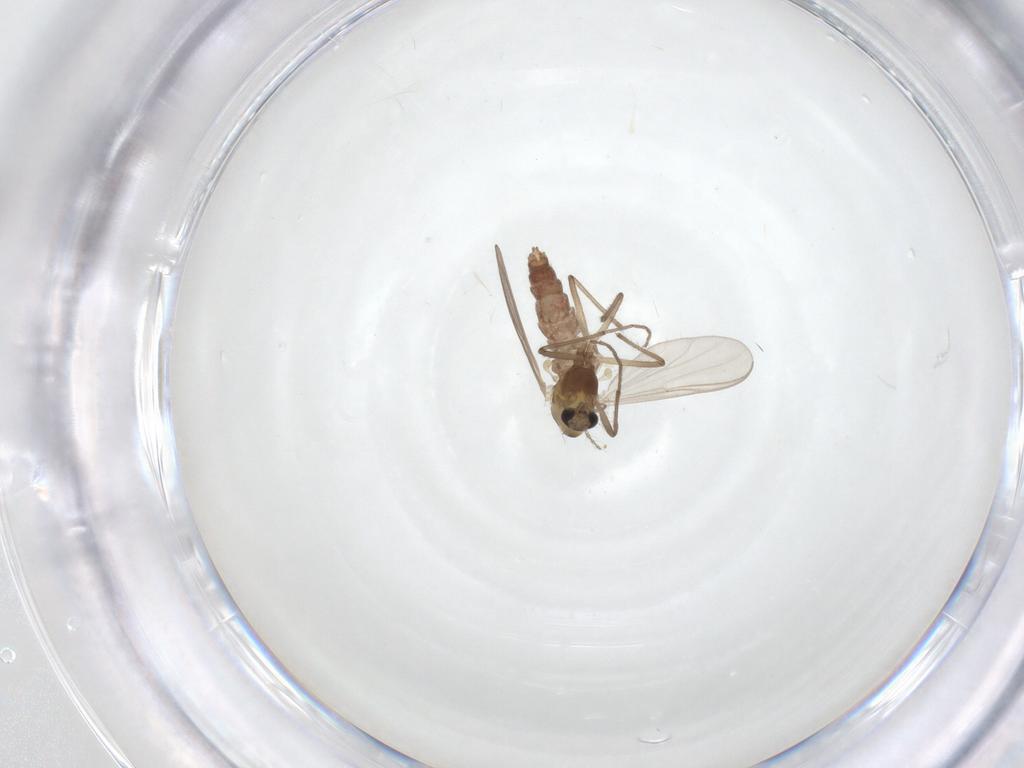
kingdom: Animalia
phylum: Arthropoda
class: Insecta
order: Diptera
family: Chironomidae
